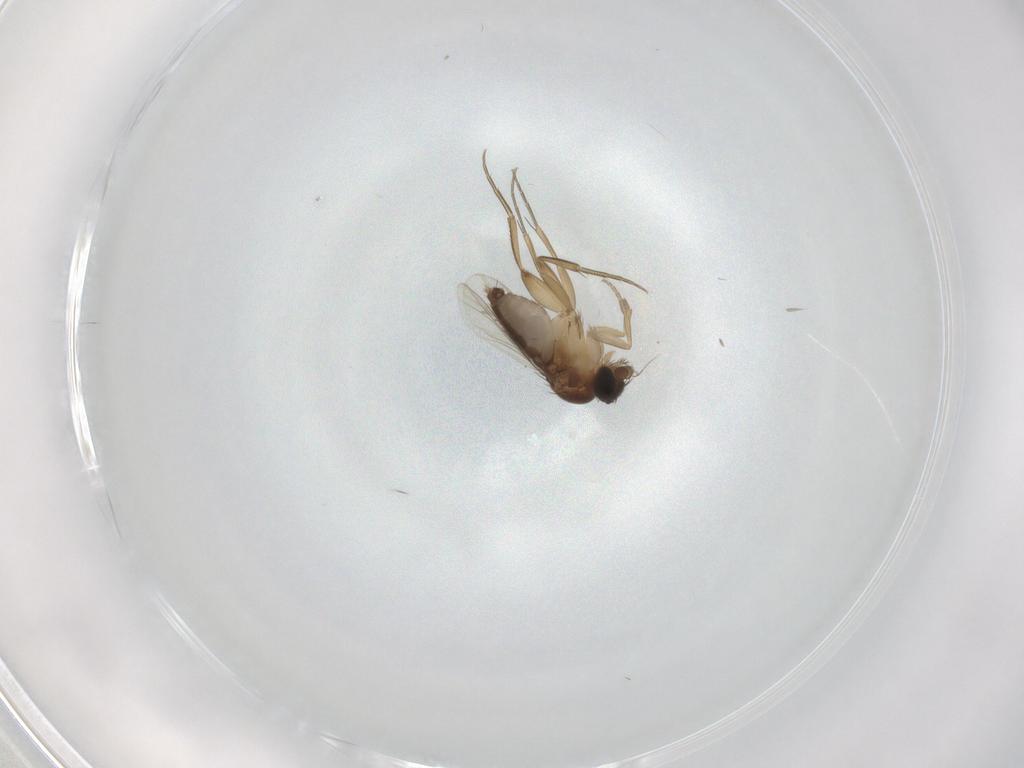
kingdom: Animalia
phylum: Arthropoda
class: Insecta
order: Diptera
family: Phoridae
